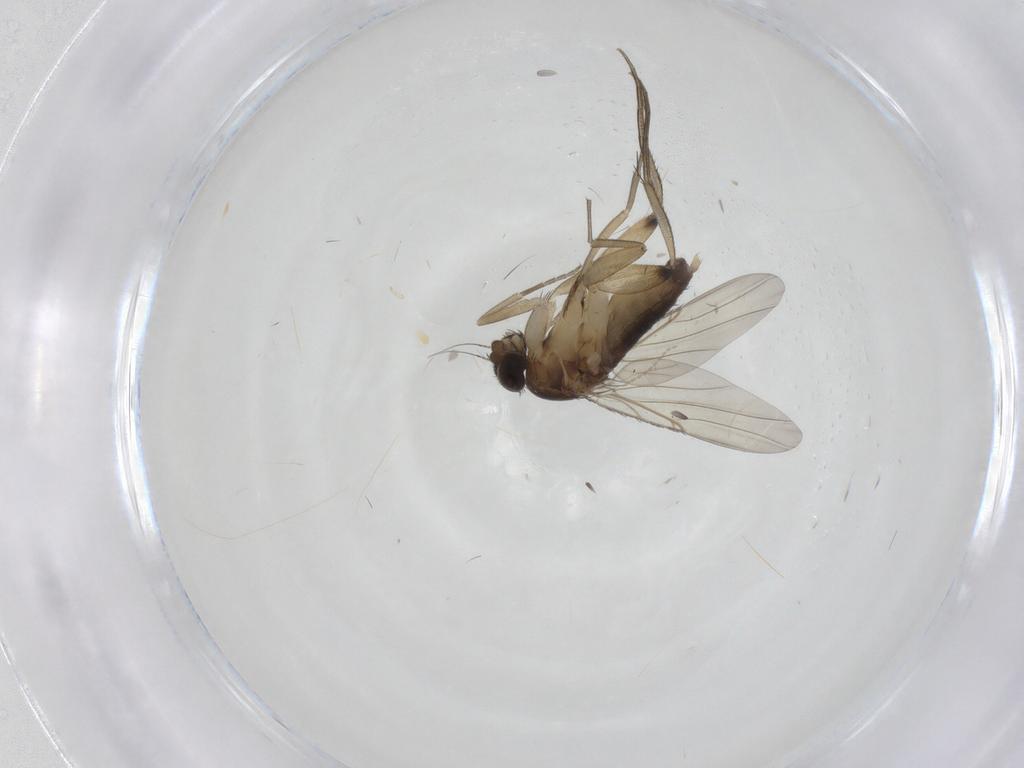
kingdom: Animalia
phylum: Arthropoda
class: Insecta
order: Diptera
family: Phoridae
